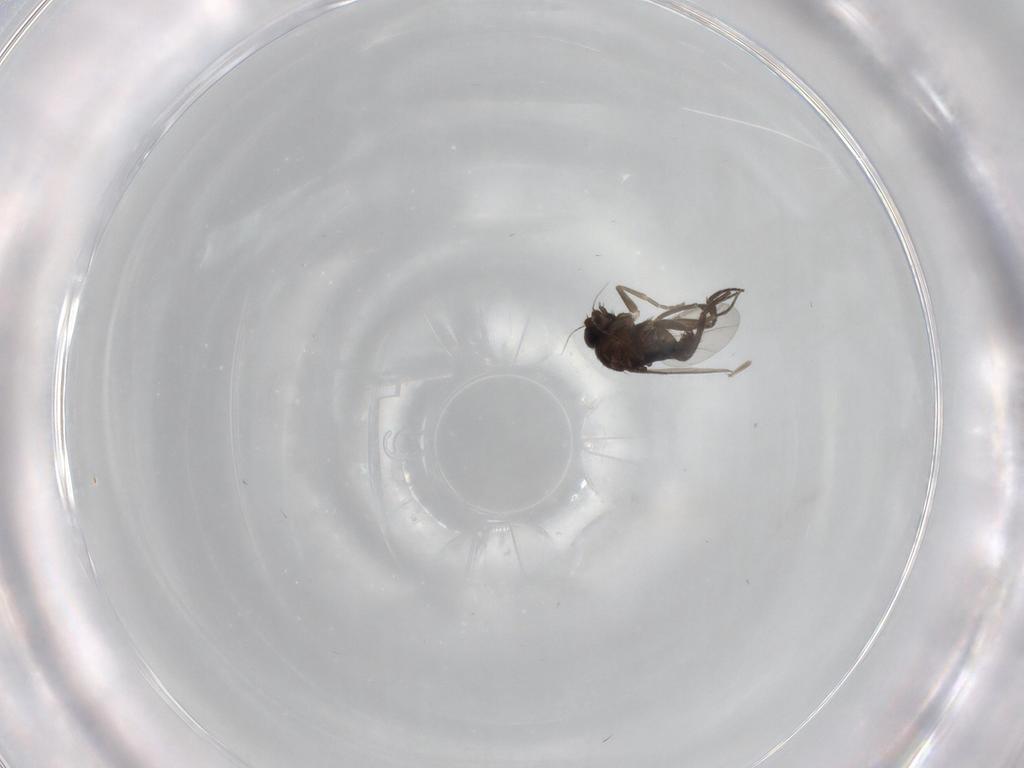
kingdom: Animalia
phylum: Arthropoda
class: Insecta
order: Diptera
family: Phoridae
